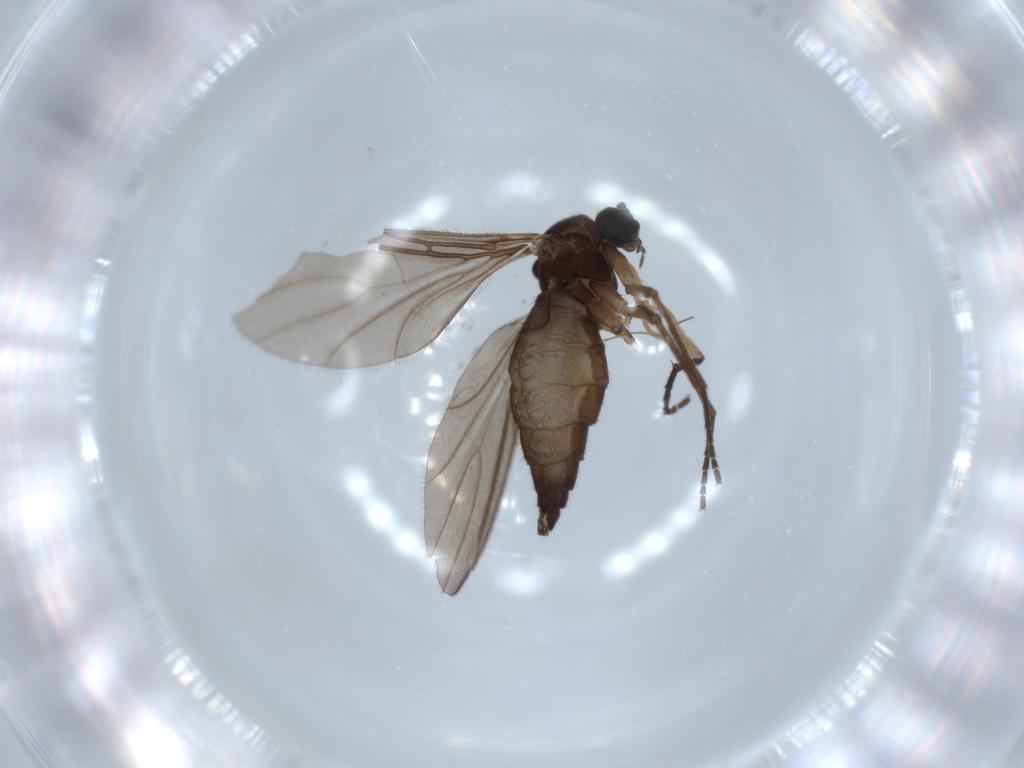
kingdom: Animalia
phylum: Arthropoda
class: Insecta
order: Diptera
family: Sciaridae
